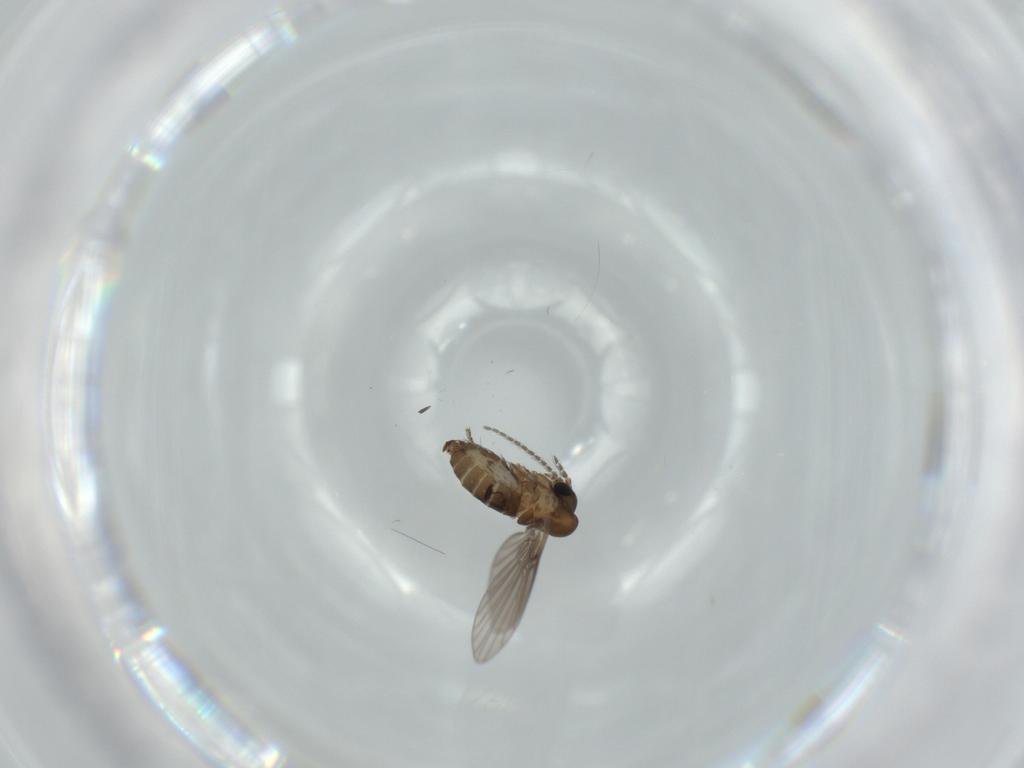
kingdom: Animalia
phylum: Arthropoda
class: Insecta
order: Diptera
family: Psychodidae
